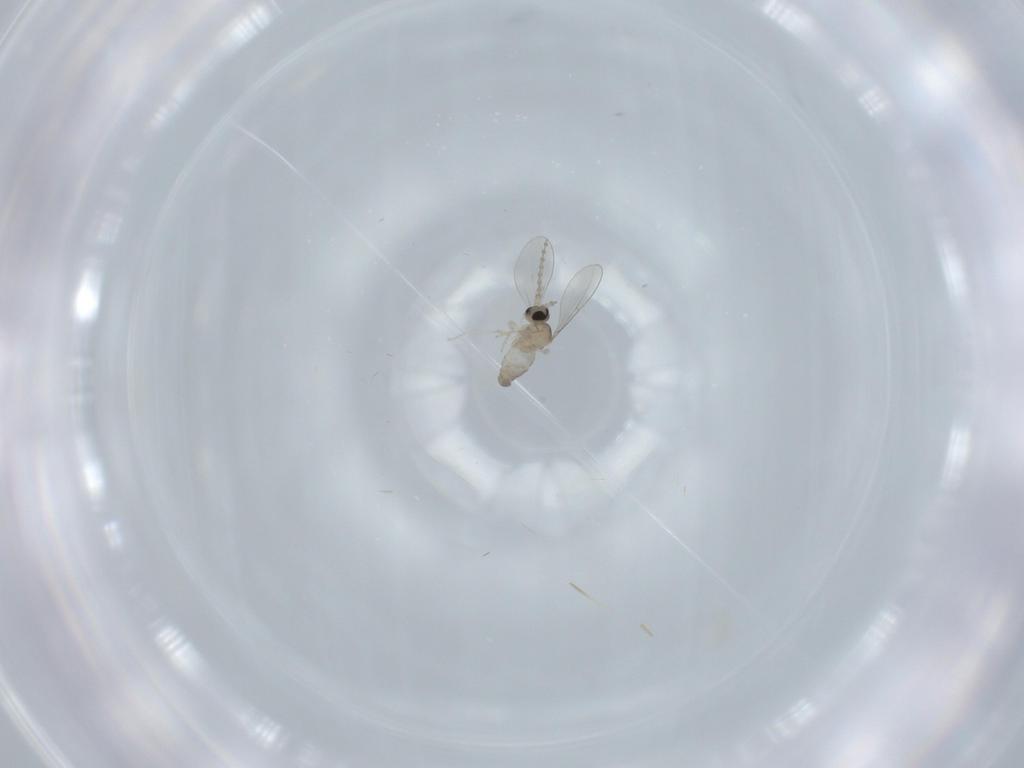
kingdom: Animalia
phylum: Arthropoda
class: Insecta
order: Diptera
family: Cecidomyiidae
